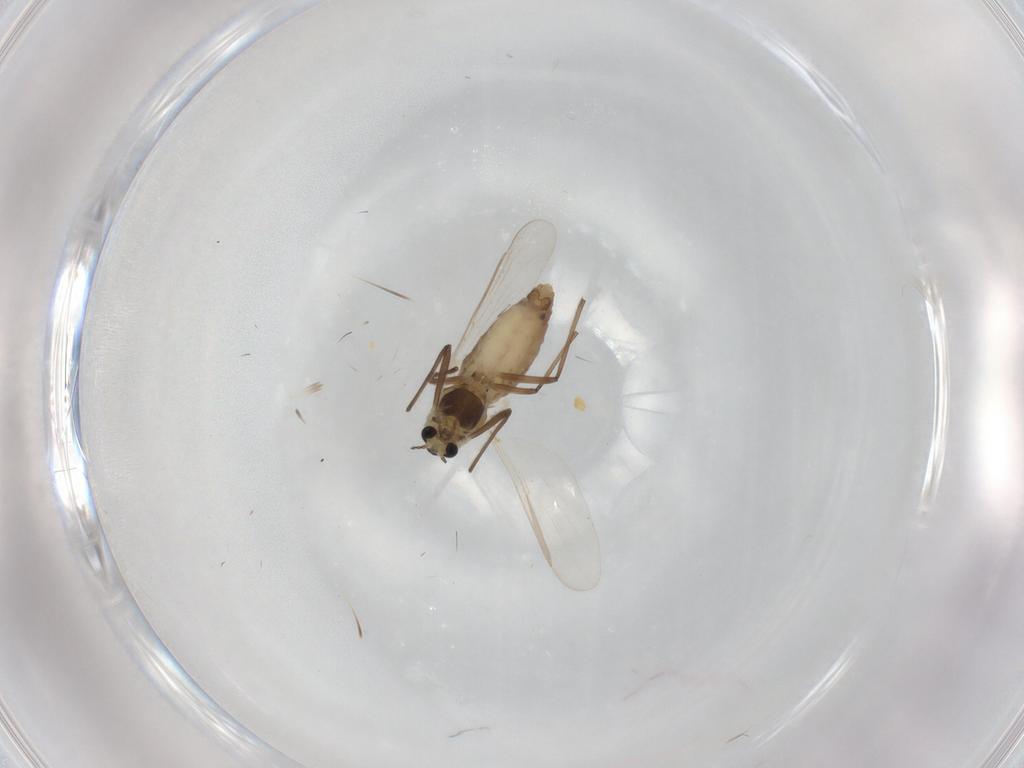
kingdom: Animalia
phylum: Arthropoda
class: Insecta
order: Diptera
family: Chironomidae
